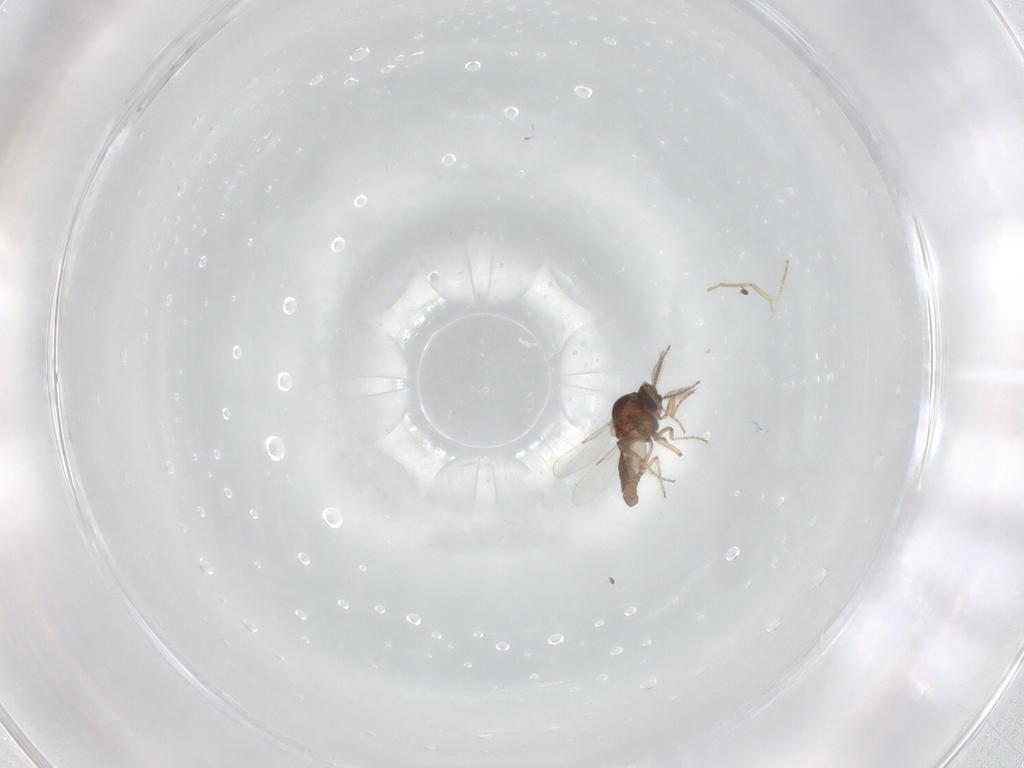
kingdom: Animalia
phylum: Arthropoda
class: Insecta
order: Diptera
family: Ceratopogonidae
